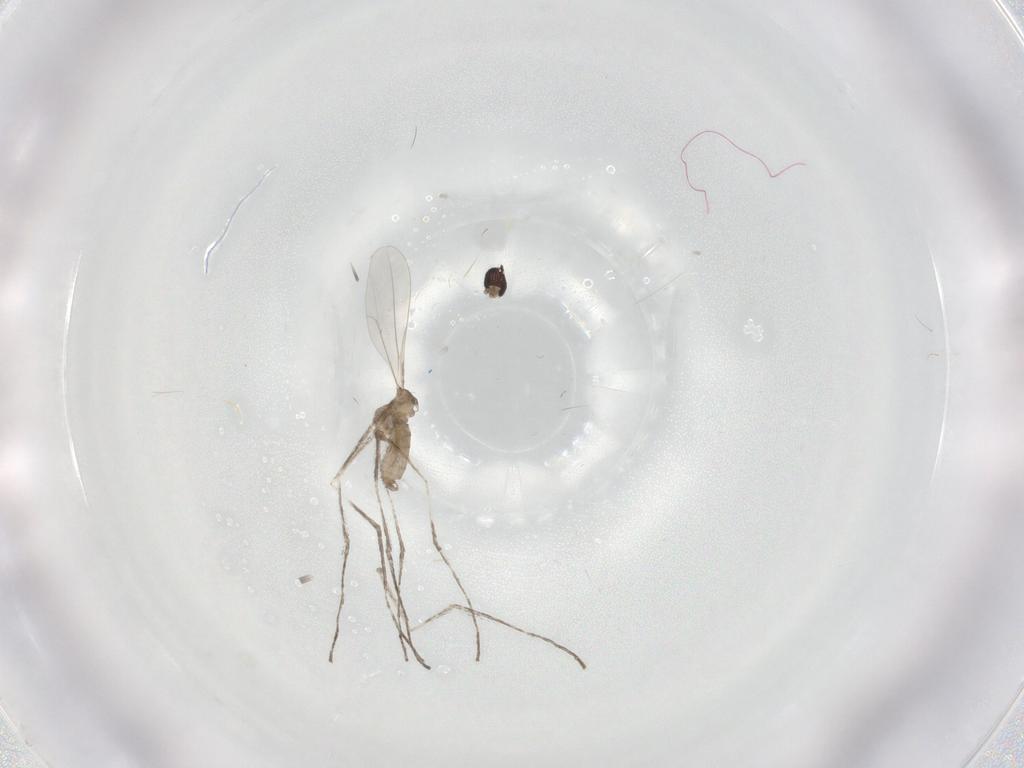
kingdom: Animalia
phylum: Arthropoda
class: Insecta
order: Diptera
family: Cecidomyiidae
